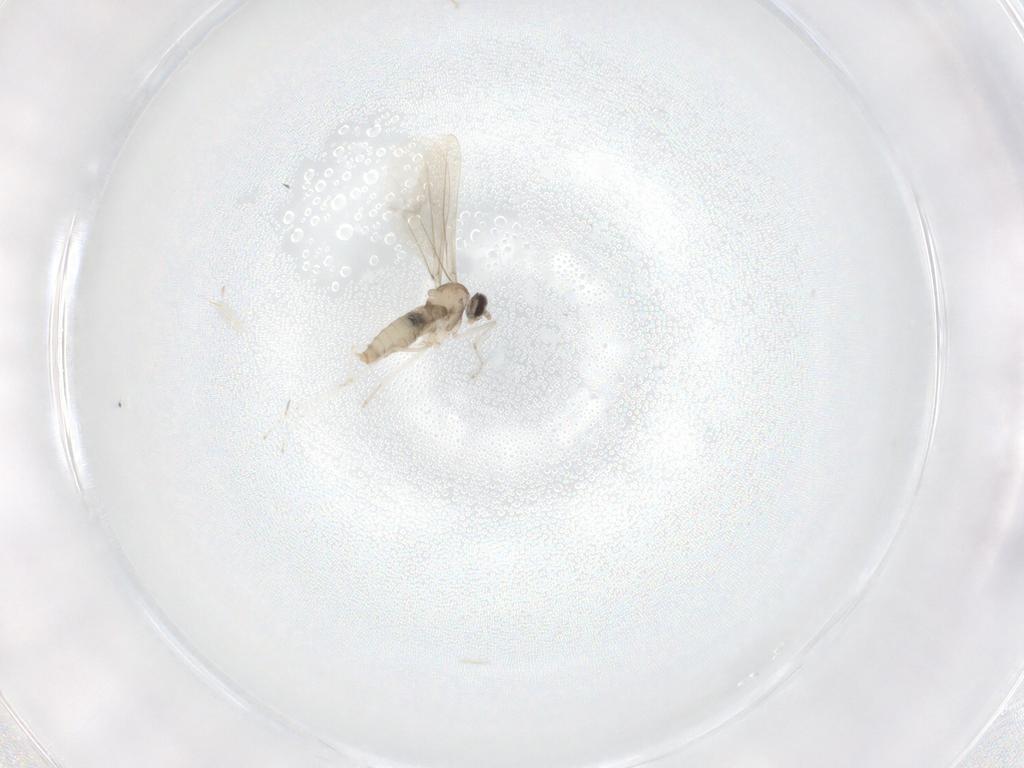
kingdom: Animalia
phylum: Arthropoda
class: Insecta
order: Diptera
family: Cecidomyiidae
